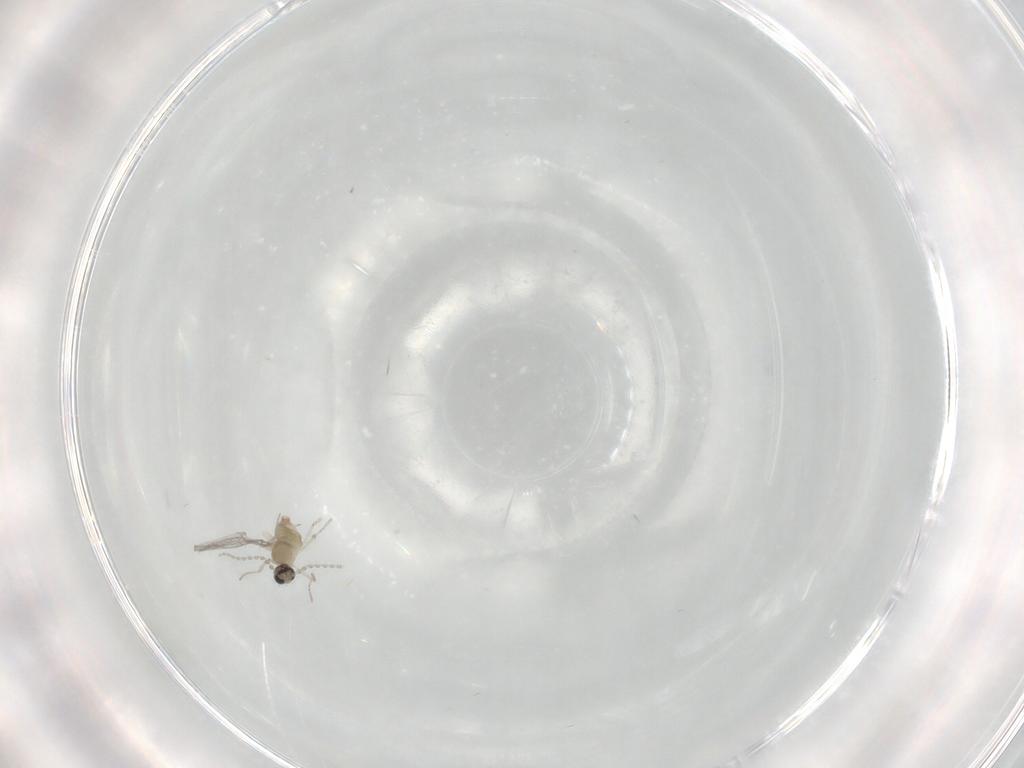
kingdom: Animalia
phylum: Arthropoda
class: Insecta
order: Diptera
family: Cecidomyiidae
